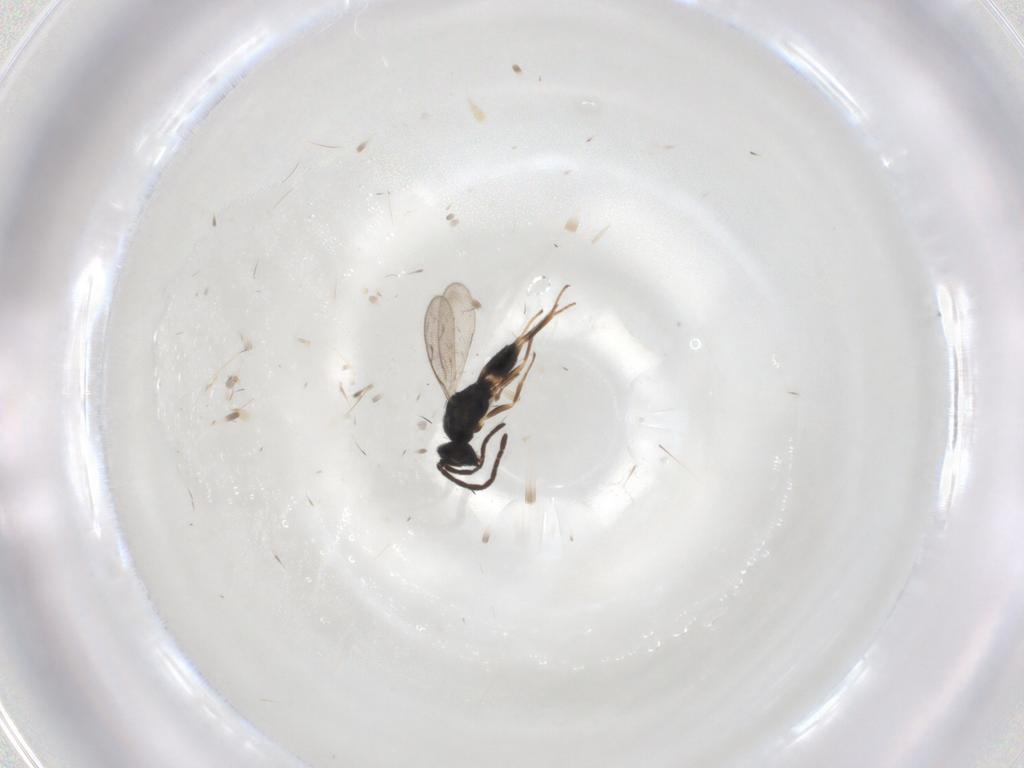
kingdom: Animalia
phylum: Arthropoda
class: Insecta
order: Hymenoptera
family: Eupelmidae
